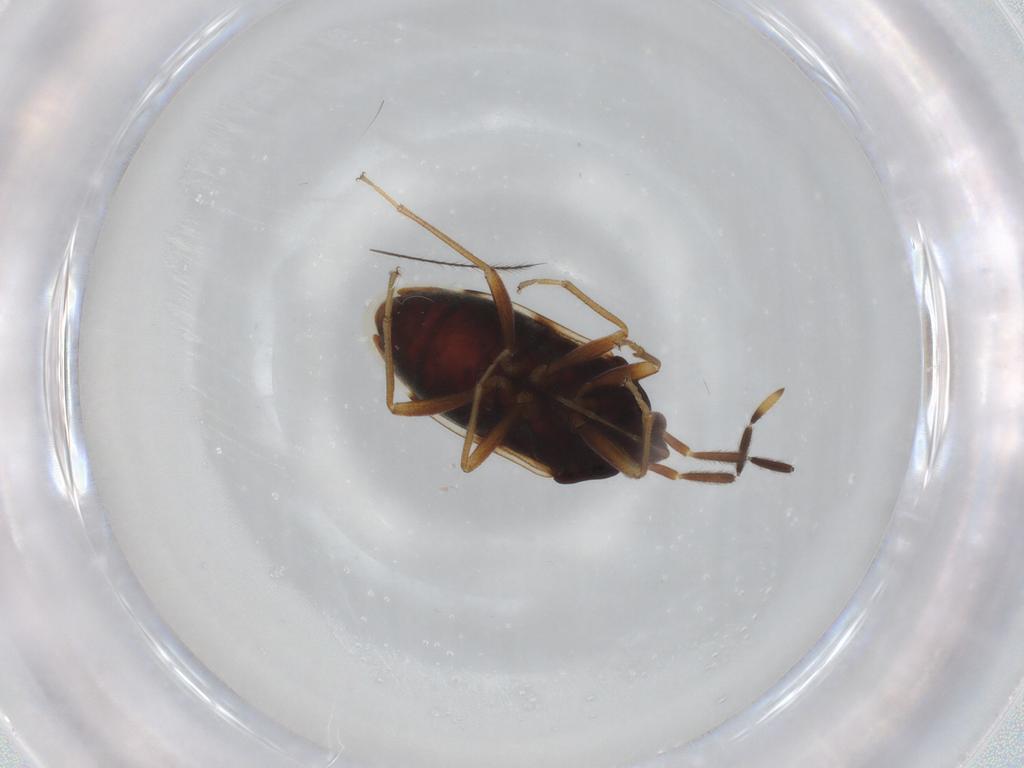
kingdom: Animalia
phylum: Arthropoda
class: Insecta
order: Hemiptera
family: Rhyparochromidae
